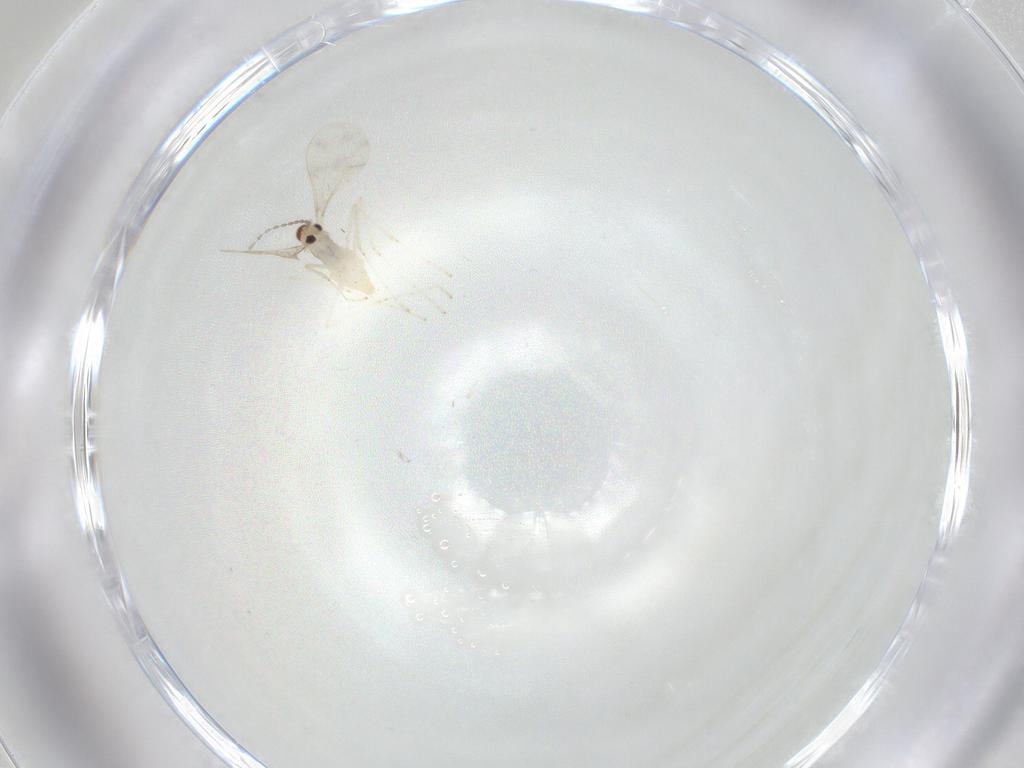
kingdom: Animalia
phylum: Arthropoda
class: Insecta
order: Diptera
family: Cecidomyiidae
